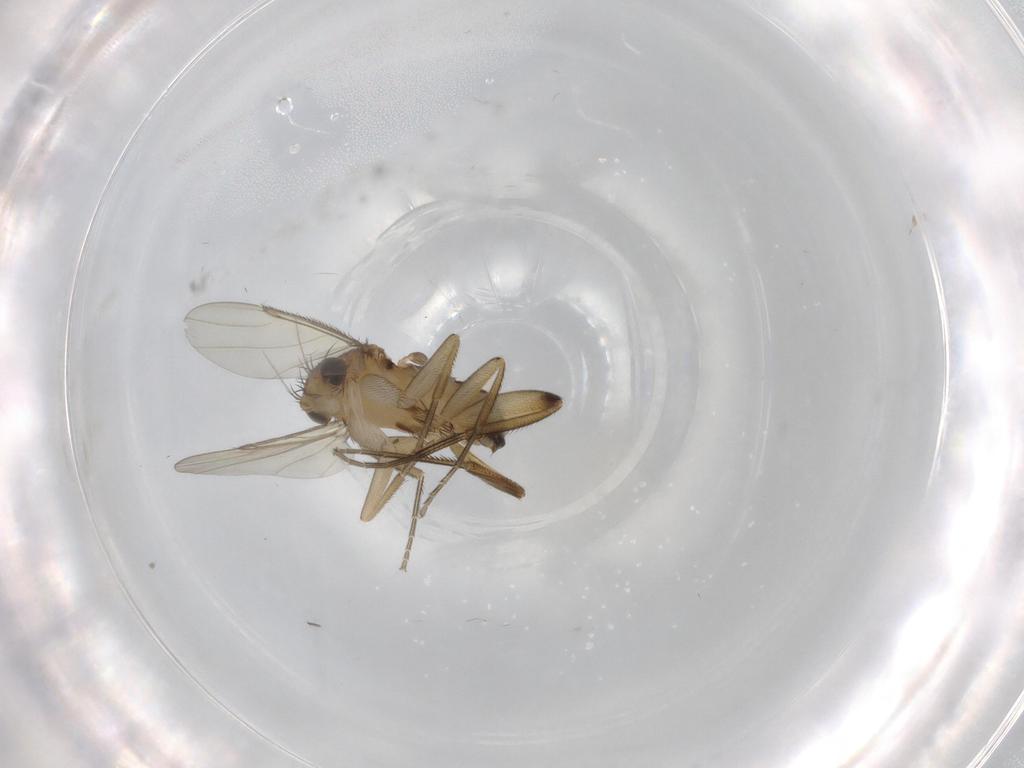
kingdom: Animalia
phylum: Arthropoda
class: Insecta
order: Diptera
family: Phoridae
